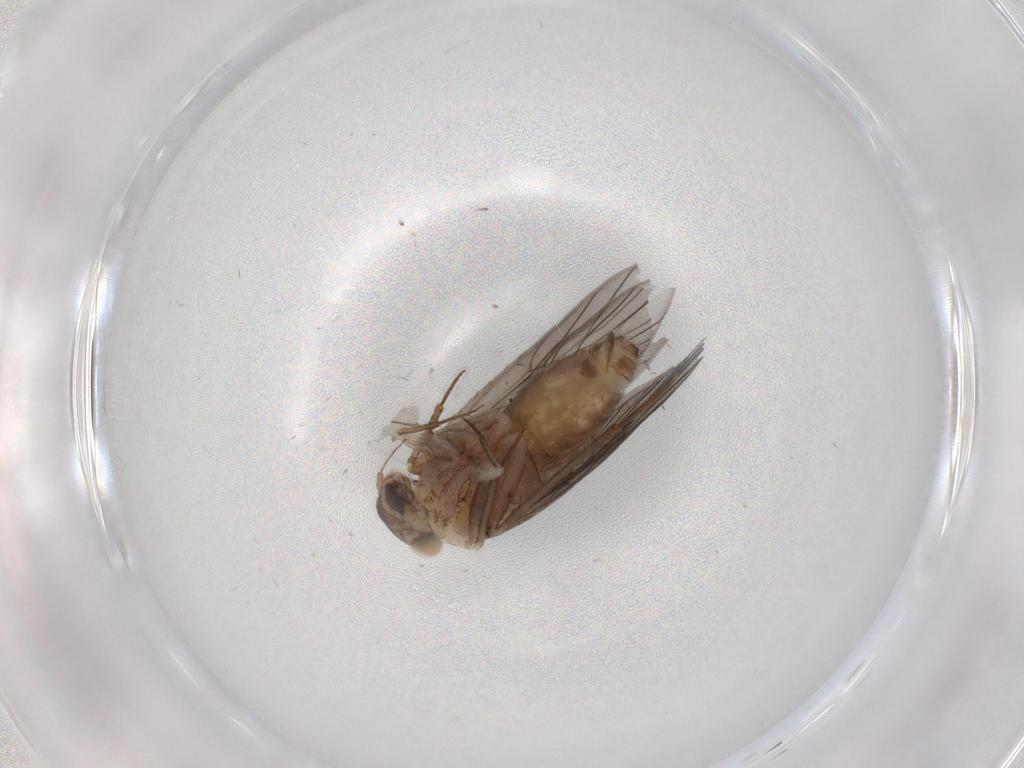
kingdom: Animalia
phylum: Arthropoda
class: Insecta
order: Psocodea
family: Lepidopsocidae
